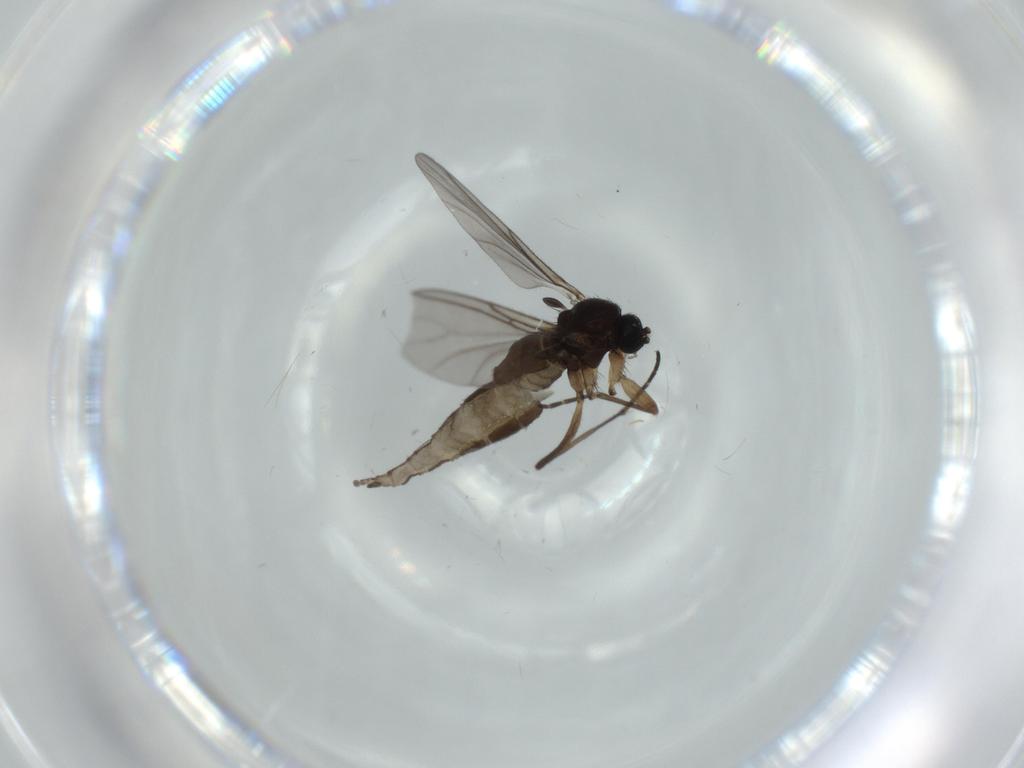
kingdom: Animalia
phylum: Arthropoda
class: Insecta
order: Diptera
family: Sciaridae
